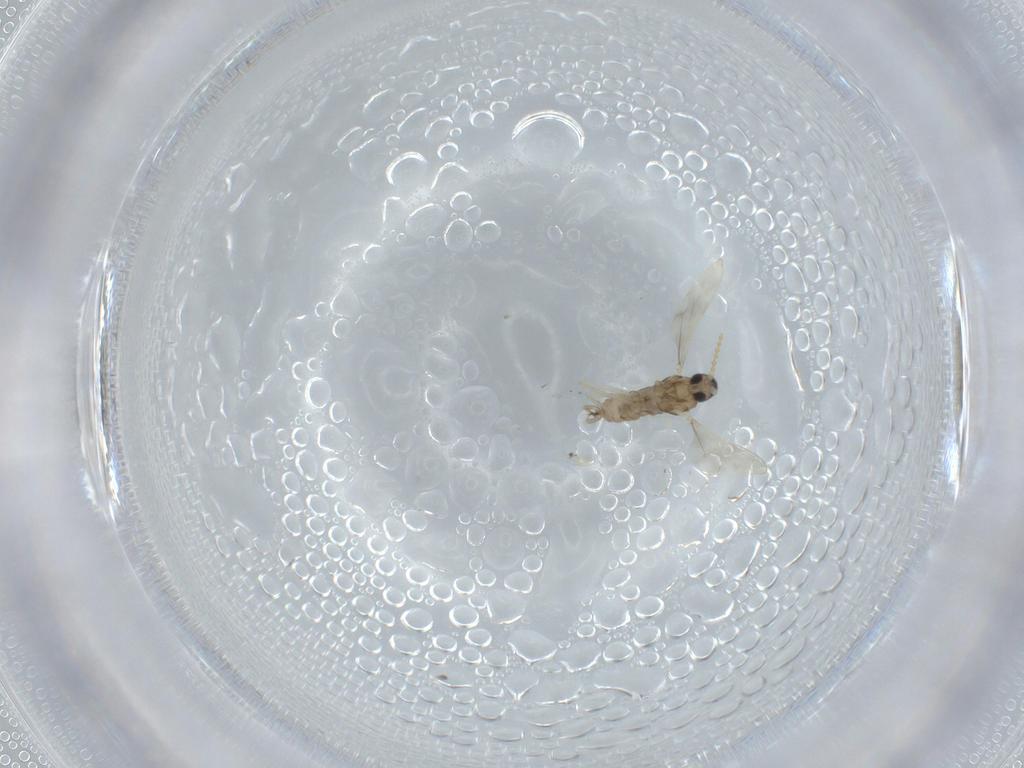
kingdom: Animalia
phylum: Arthropoda
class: Insecta
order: Diptera
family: Cecidomyiidae
